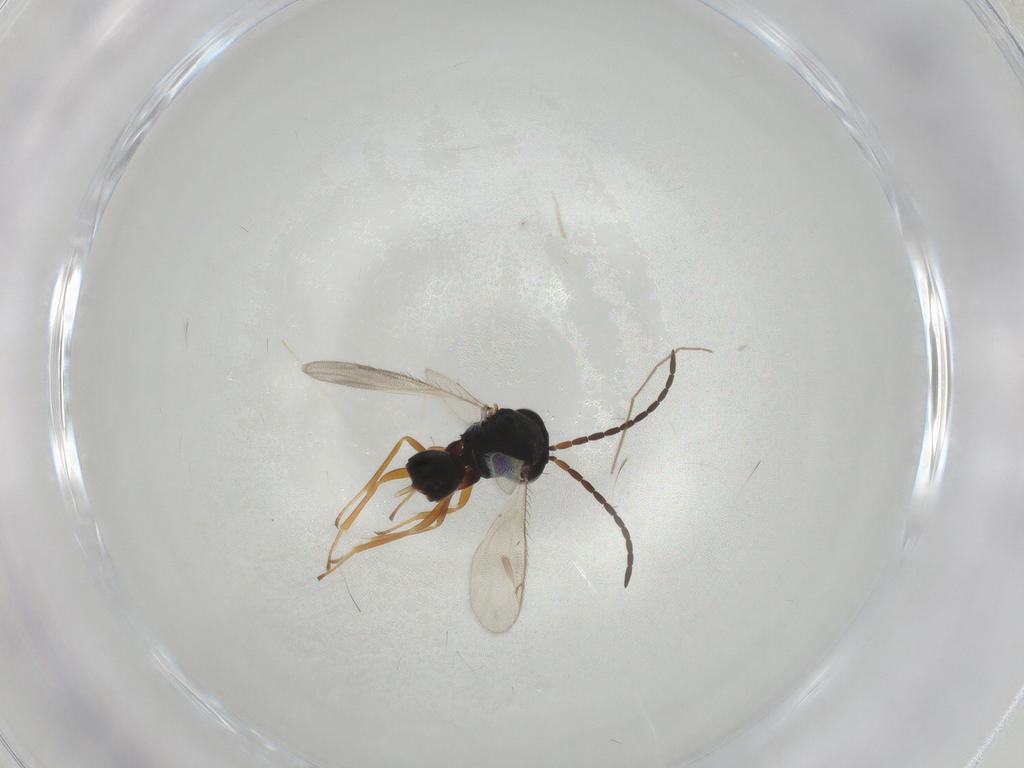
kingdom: Animalia
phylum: Arthropoda
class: Insecta
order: Hymenoptera
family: Diparidae
